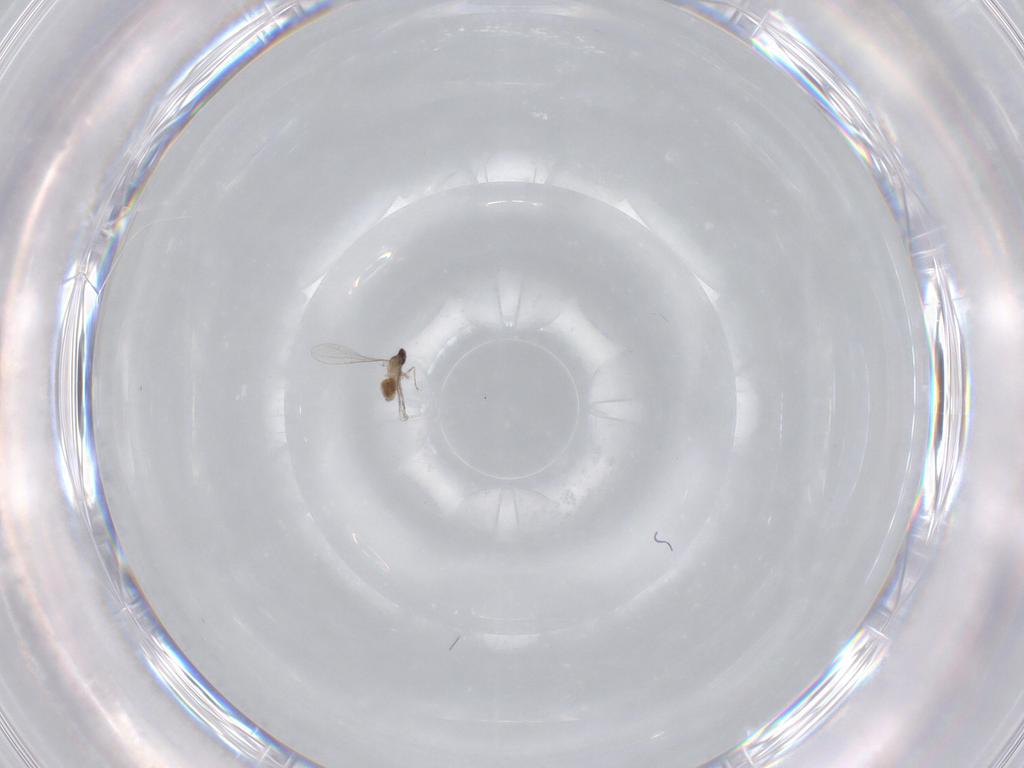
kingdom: Animalia
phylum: Arthropoda
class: Insecta
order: Diptera
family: Cecidomyiidae
